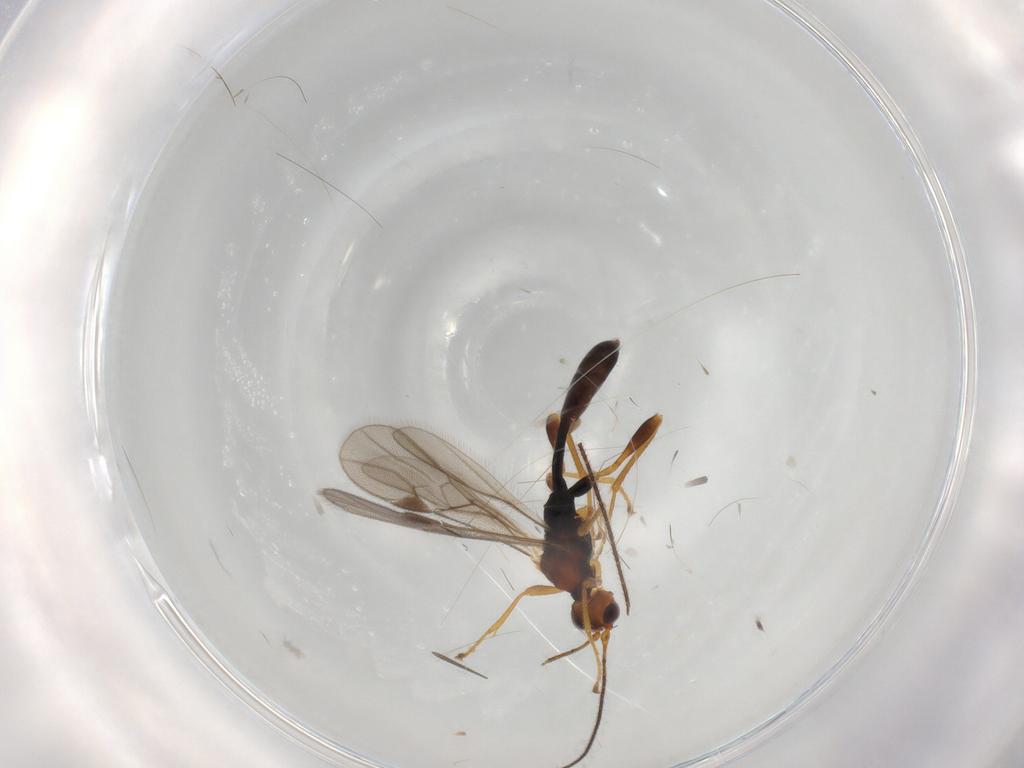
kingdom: Animalia
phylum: Arthropoda
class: Insecta
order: Hymenoptera
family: Braconidae
